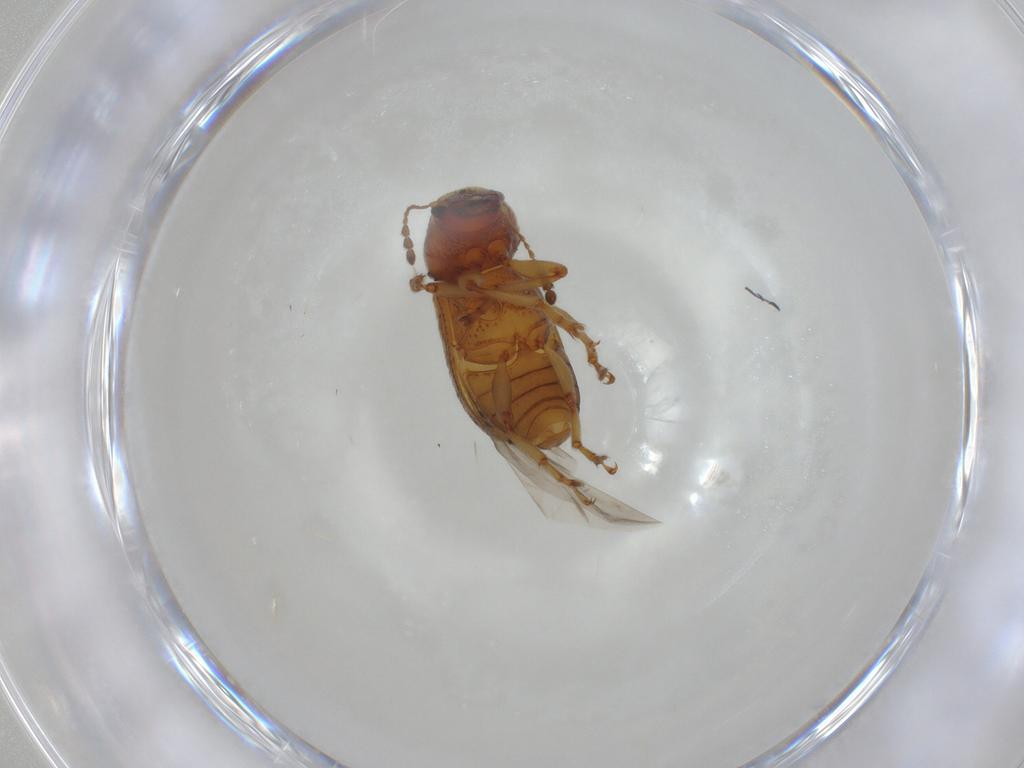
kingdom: Animalia
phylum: Arthropoda
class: Insecta
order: Coleoptera
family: Anthribidae
